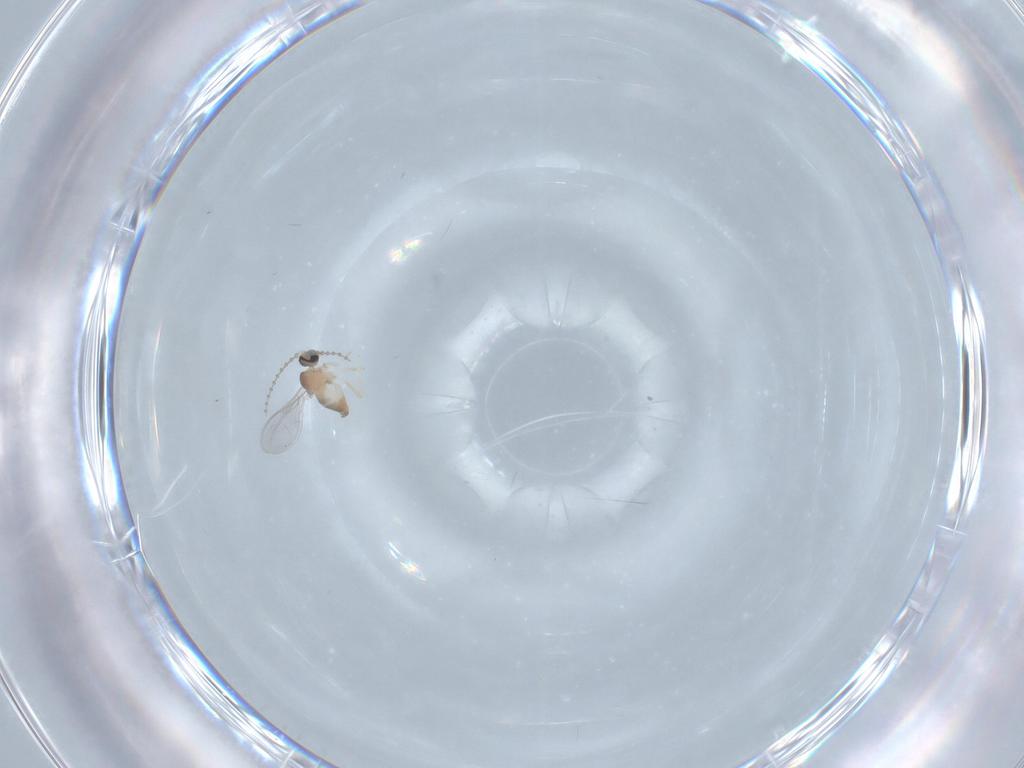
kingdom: Animalia
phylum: Arthropoda
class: Insecta
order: Diptera
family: Cecidomyiidae
